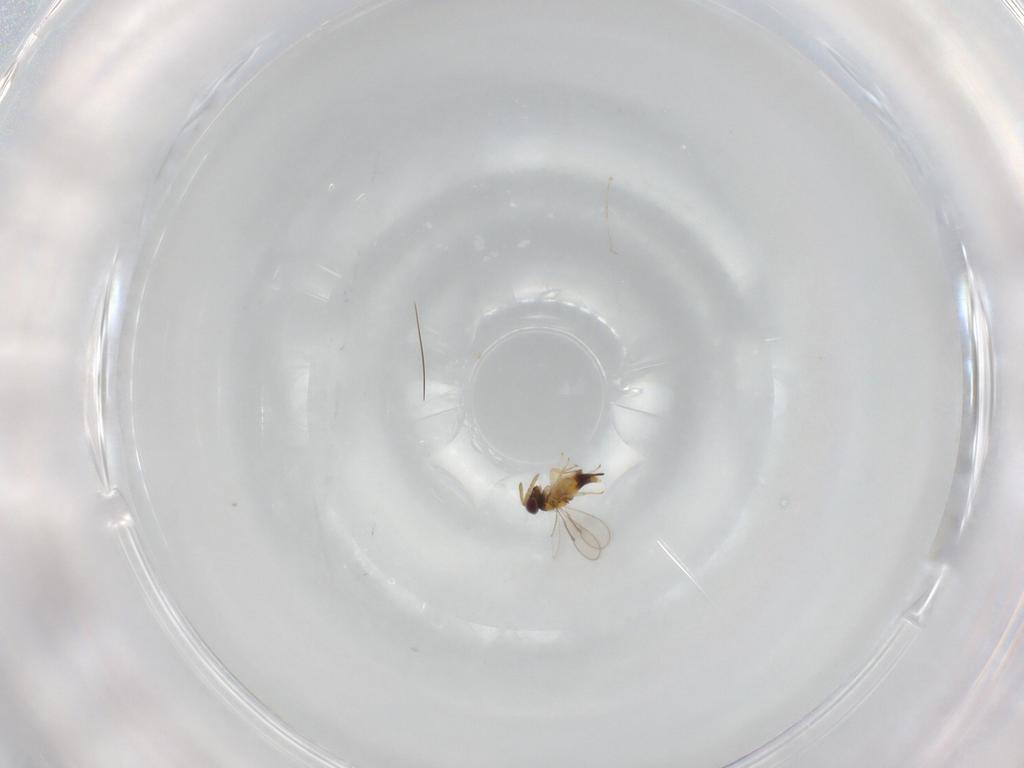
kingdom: Animalia
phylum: Arthropoda
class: Insecta
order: Hymenoptera
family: Aphelinidae
